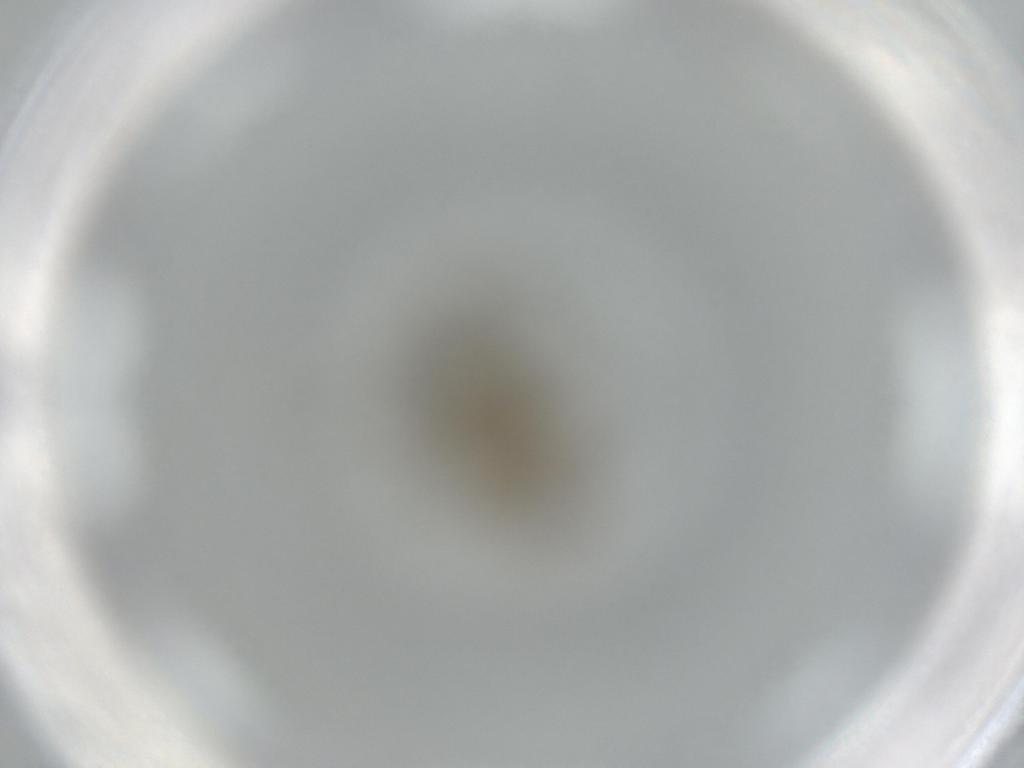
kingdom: Animalia
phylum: Arthropoda
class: Insecta
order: Diptera
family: Phoridae
